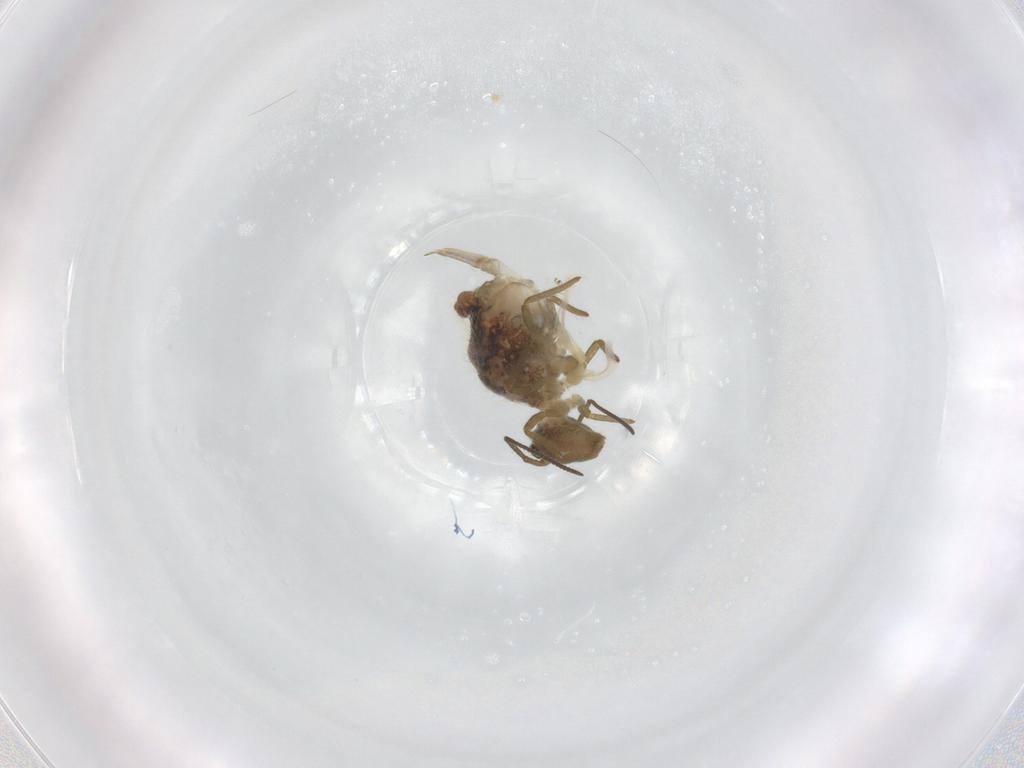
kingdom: Animalia
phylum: Arthropoda
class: Collembola
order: Symphypleona
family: Sminthuridae
